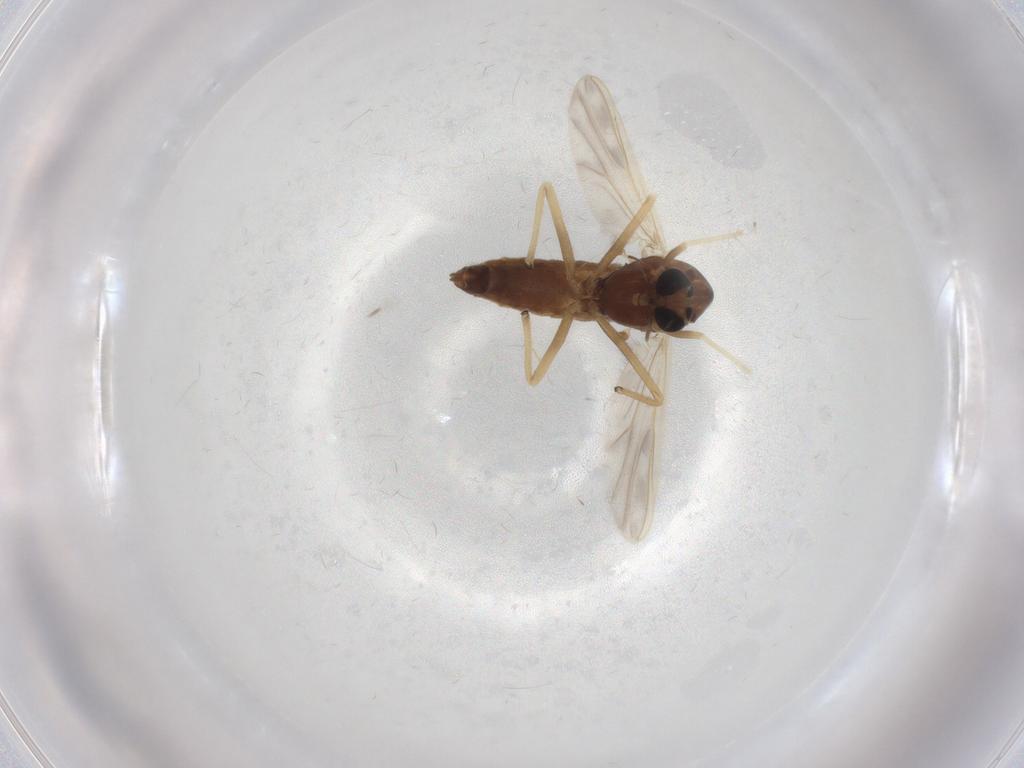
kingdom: Animalia
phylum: Arthropoda
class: Insecta
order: Diptera
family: Chironomidae
